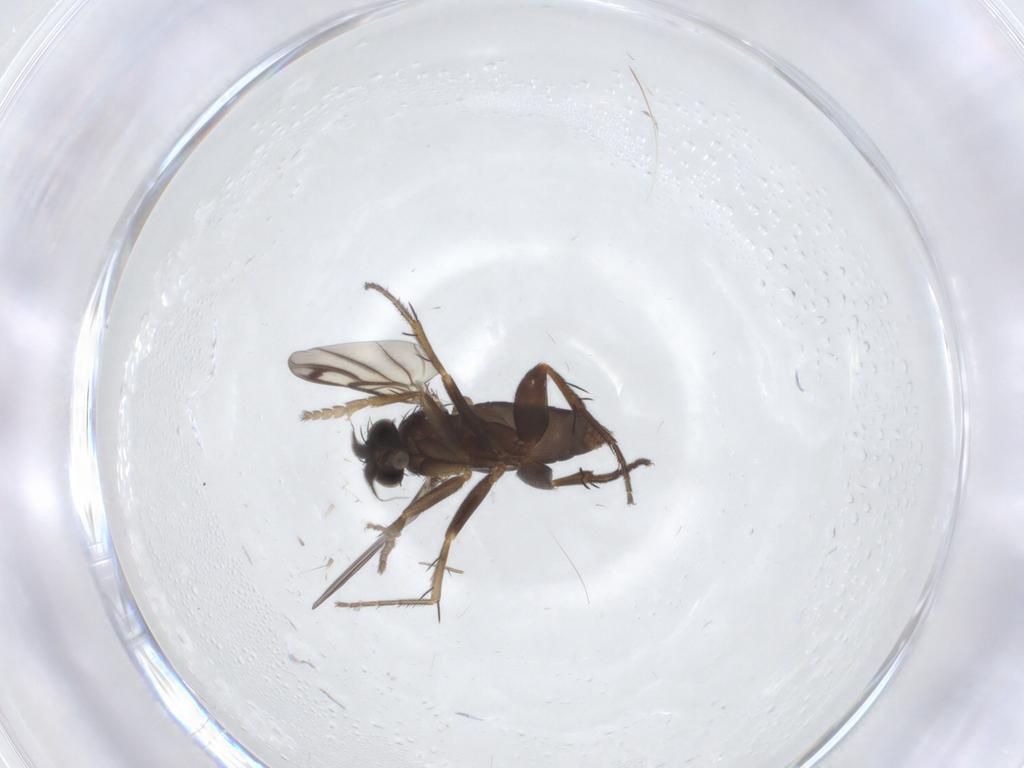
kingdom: Animalia
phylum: Arthropoda
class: Insecta
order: Diptera
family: Phoridae
